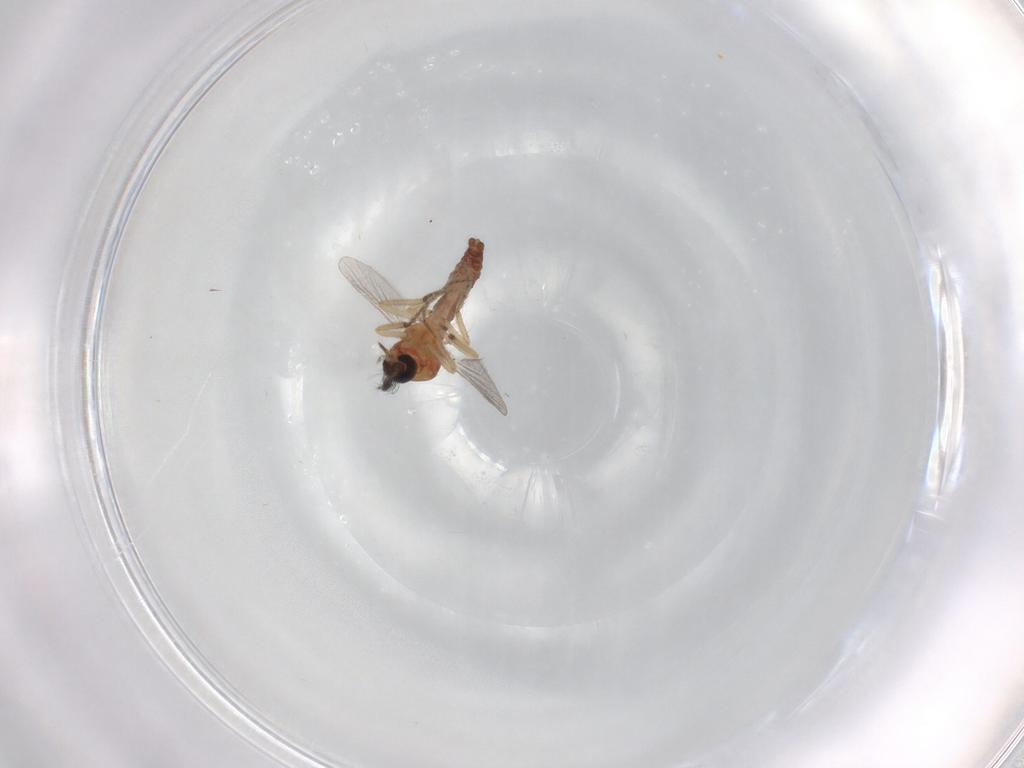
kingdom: Animalia
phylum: Arthropoda
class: Insecta
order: Diptera
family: Ceratopogonidae
